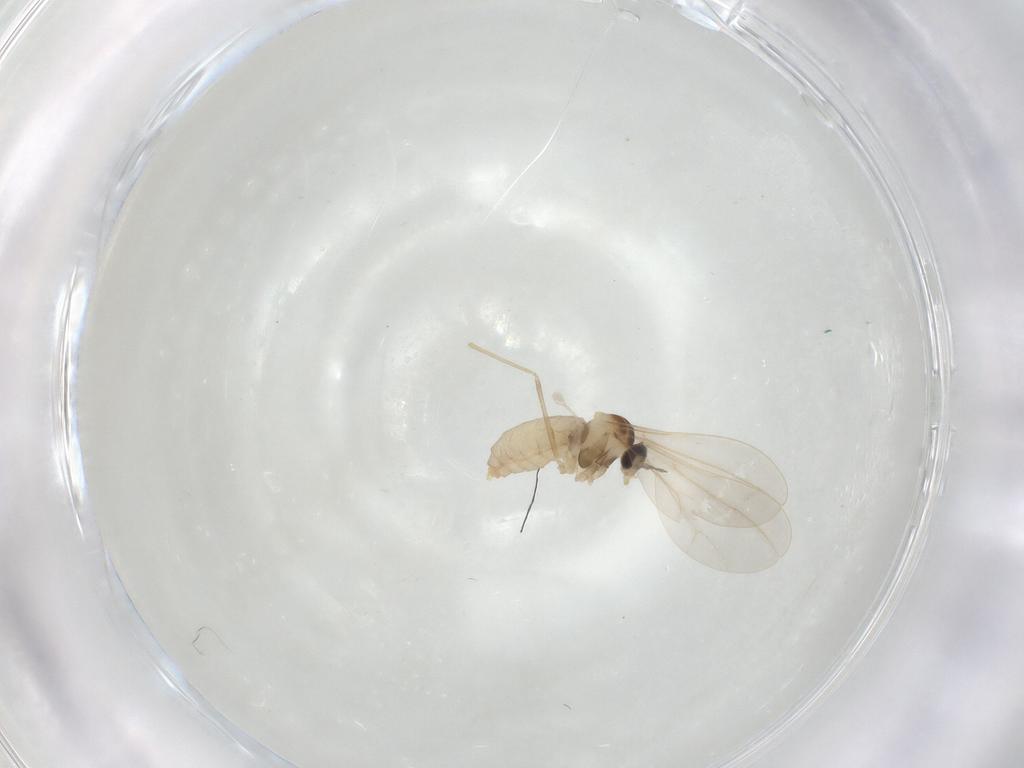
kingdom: Animalia
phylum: Arthropoda
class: Insecta
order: Diptera
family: Cecidomyiidae
